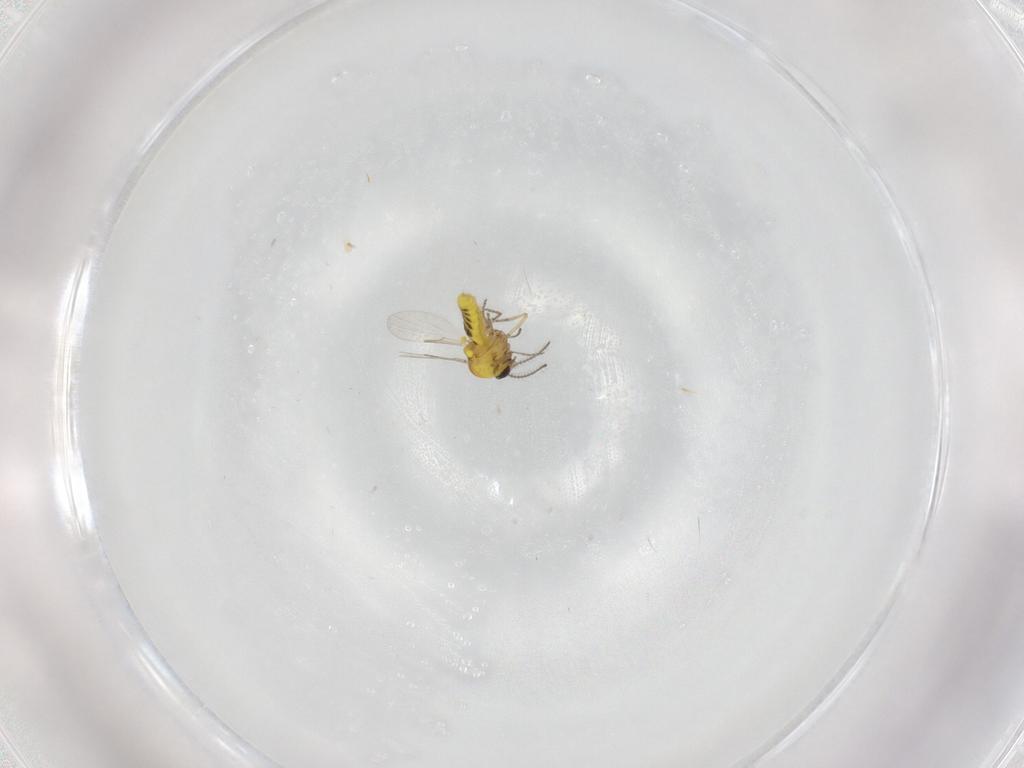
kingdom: Animalia
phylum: Arthropoda
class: Insecta
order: Diptera
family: Ceratopogonidae
